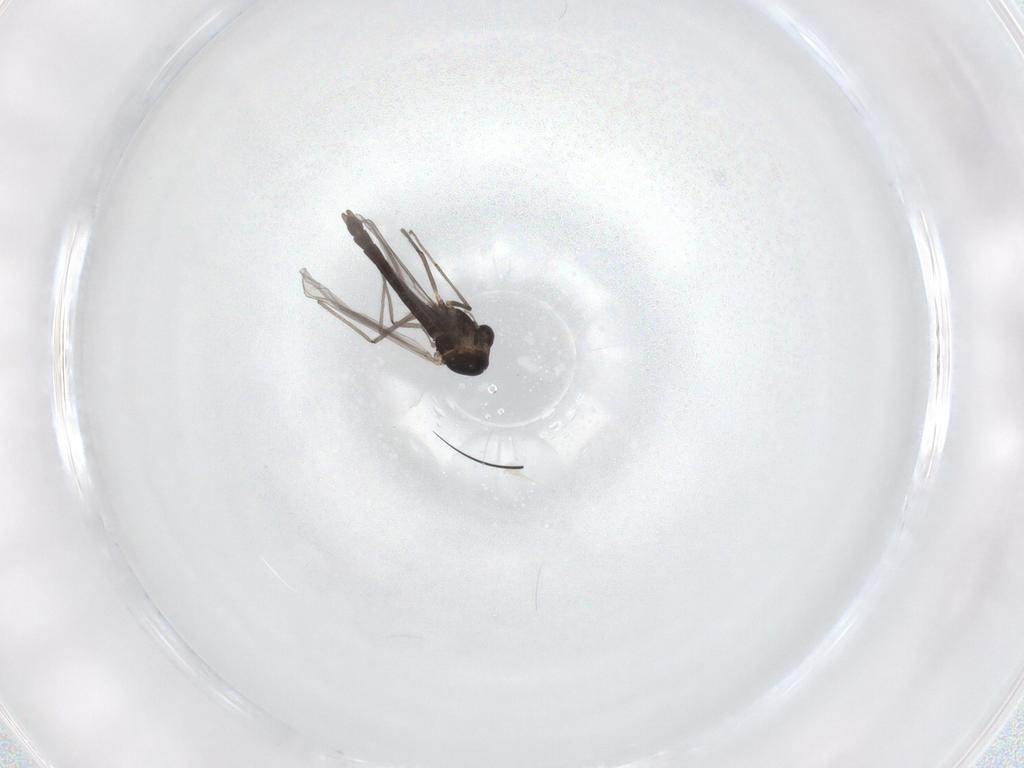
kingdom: Animalia
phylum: Arthropoda
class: Insecta
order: Diptera
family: Chironomidae
